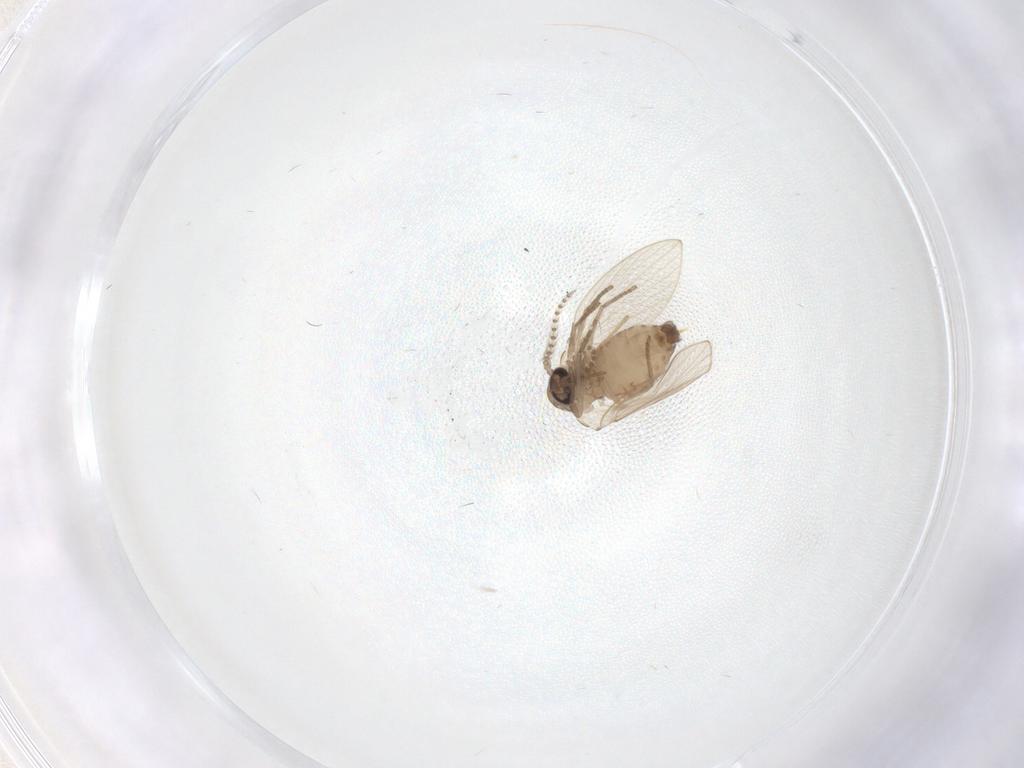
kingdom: Animalia
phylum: Arthropoda
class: Insecta
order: Diptera
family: Cecidomyiidae
